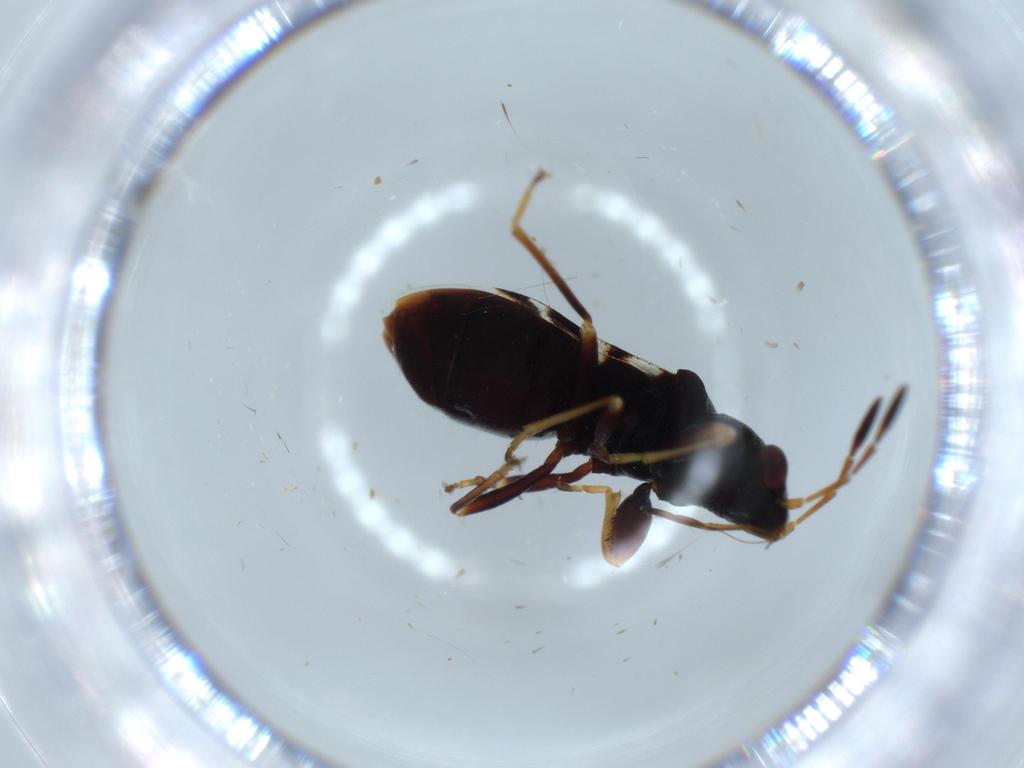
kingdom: Animalia
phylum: Arthropoda
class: Insecta
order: Hemiptera
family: Rhyparochromidae
